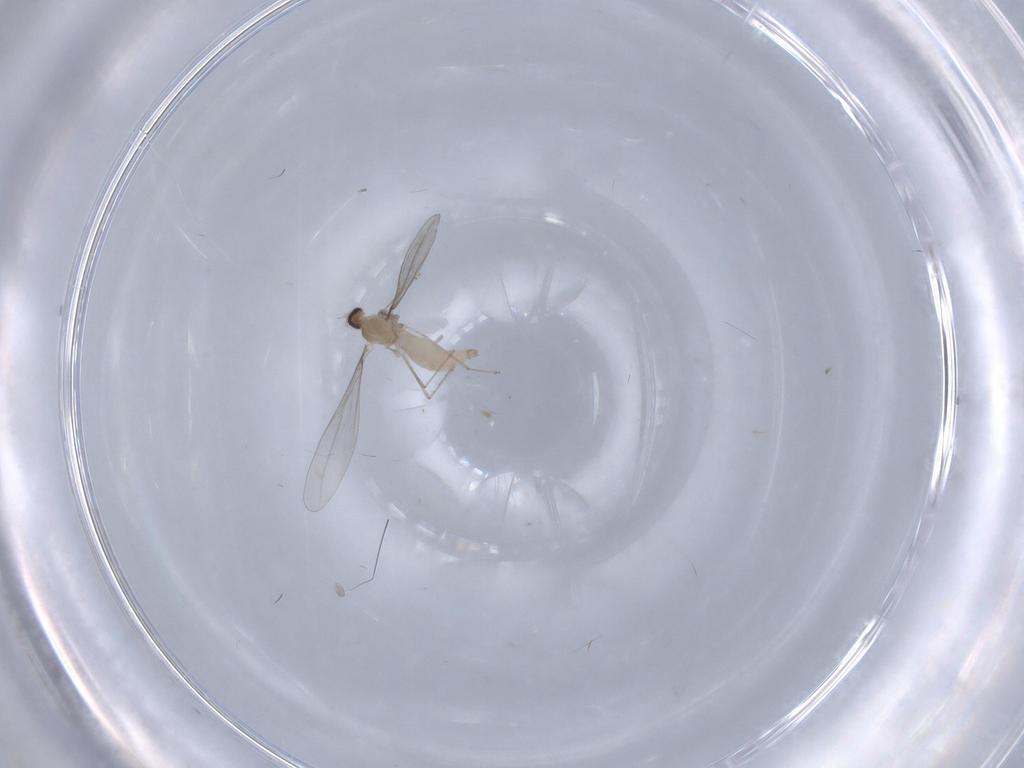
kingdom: Animalia
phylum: Arthropoda
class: Insecta
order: Diptera
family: Cecidomyiidae
